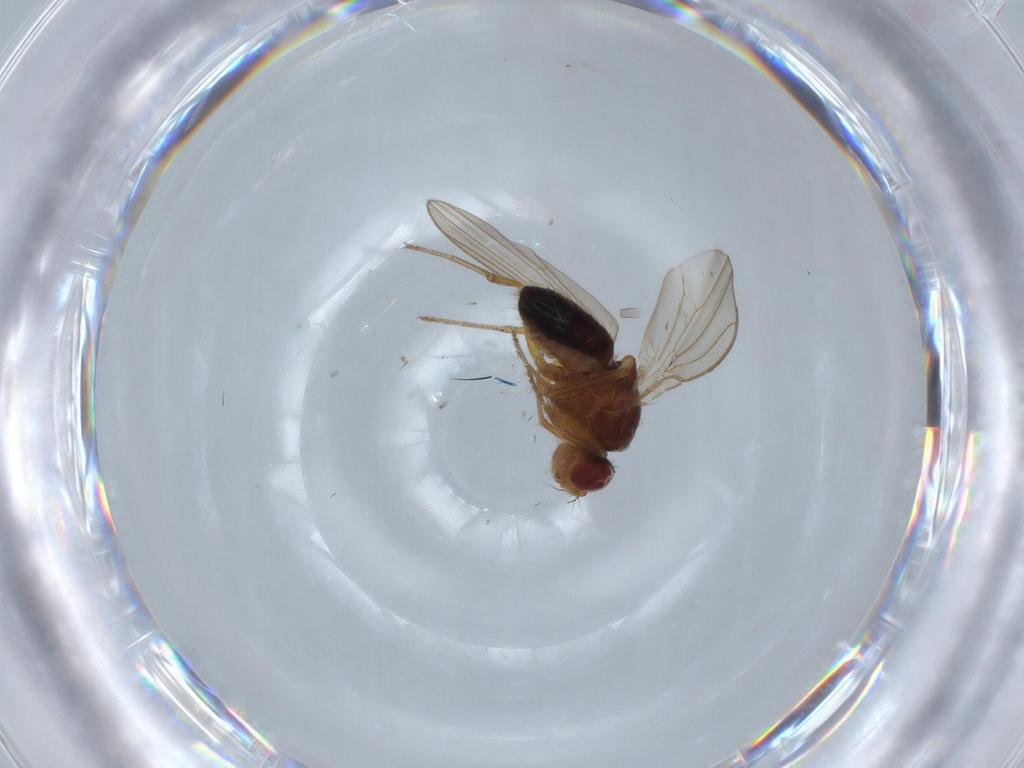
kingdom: Animalia
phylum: Arthropoda
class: Insecta
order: Diptera
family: Drosophilidae
